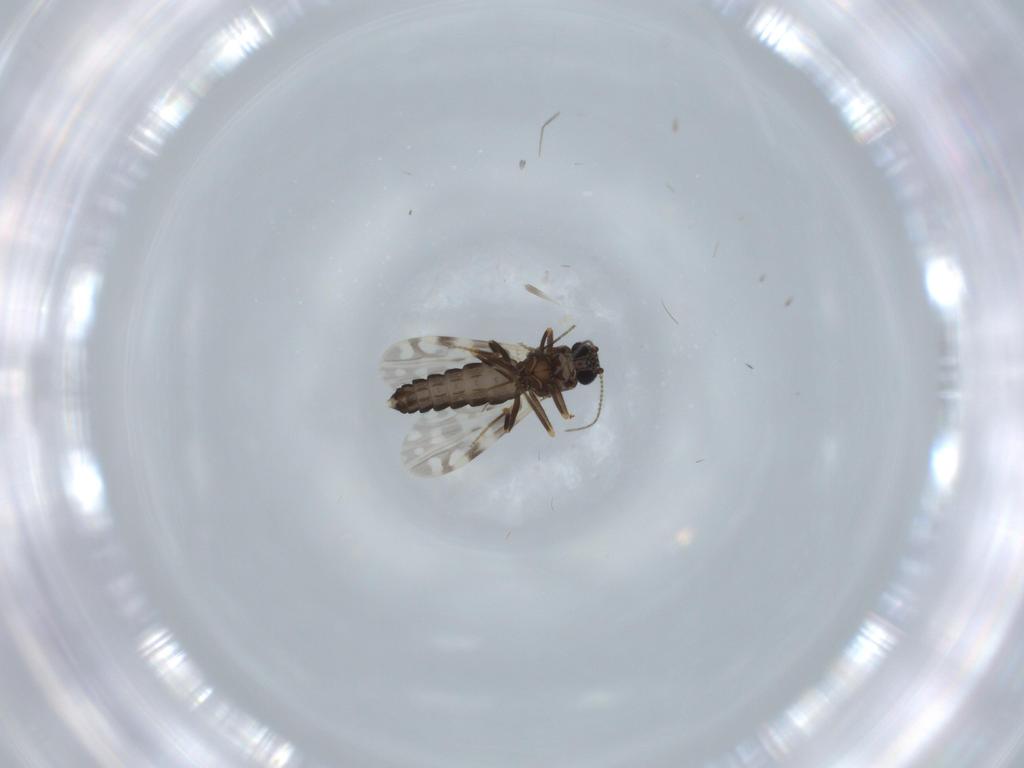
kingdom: Animalia
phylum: Arthropoda
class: Insecta
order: Diptera
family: Ceratopogonidae
